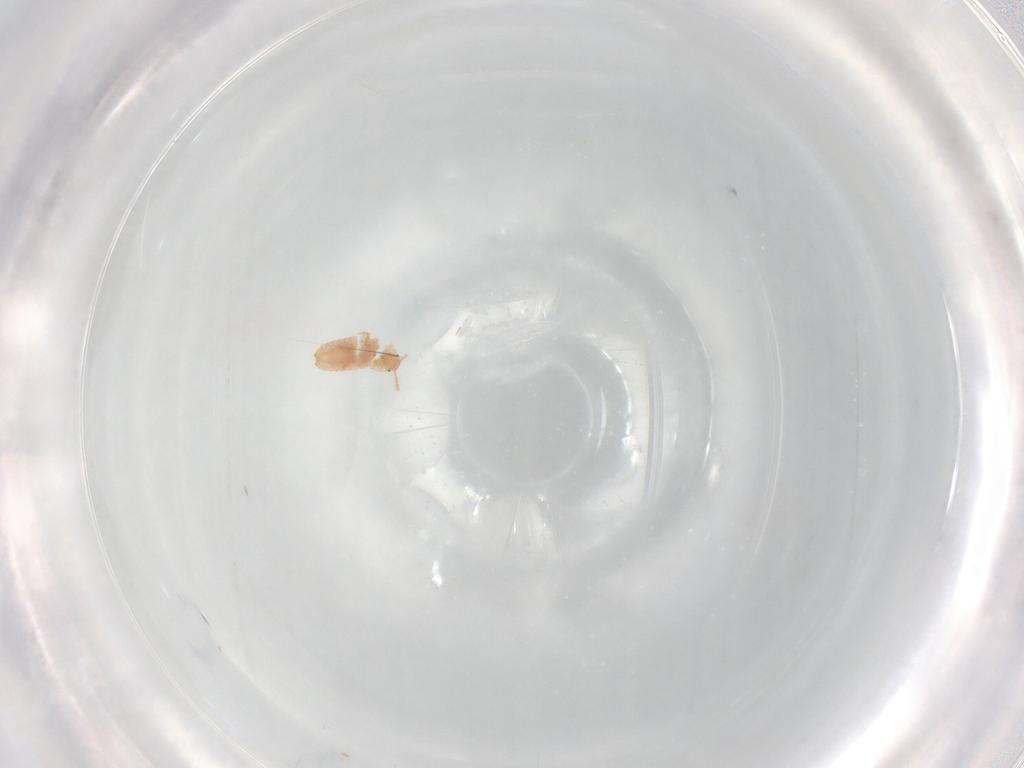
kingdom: Animalia
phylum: Arthropoda
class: Insecta
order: Hemiptera
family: Coccoidea_incertae_sedis
